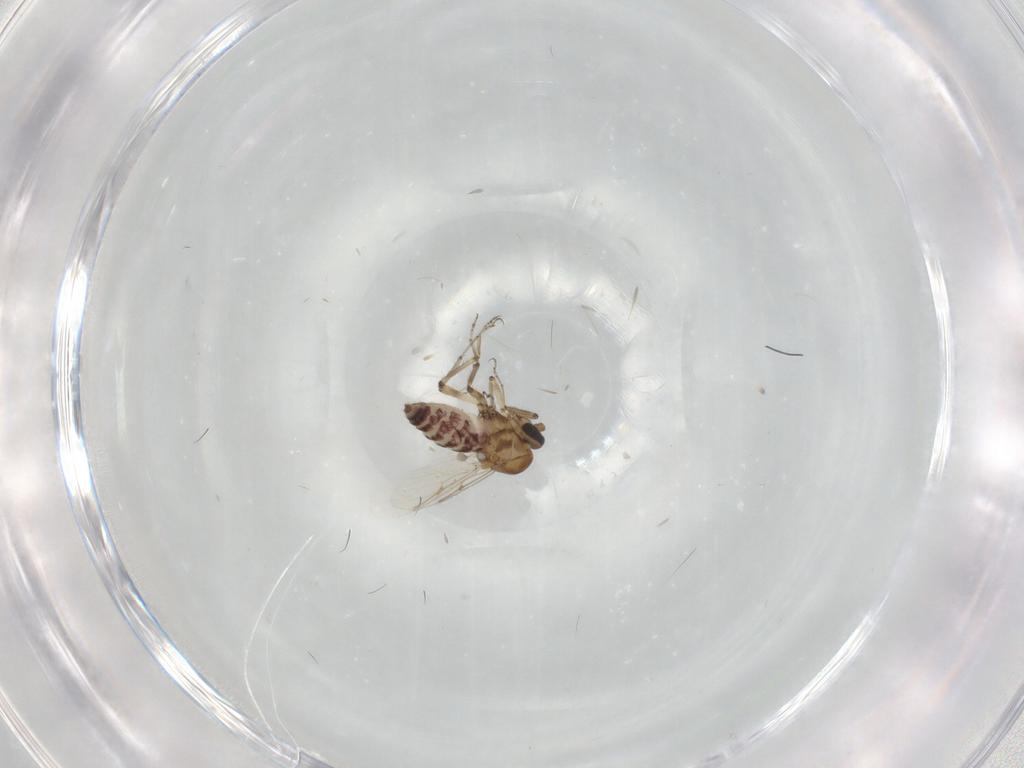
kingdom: Animalia
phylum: Arthropoda
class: Insecta
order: Diptera
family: Ceratopogonidae
